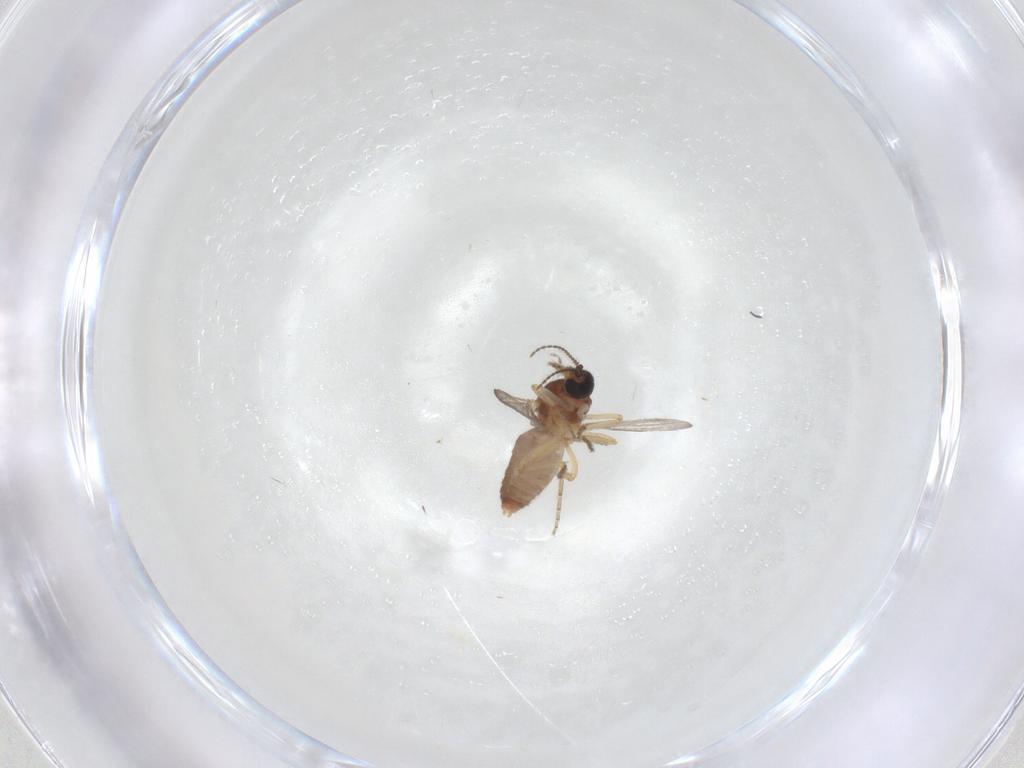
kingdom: Animalia
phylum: Arthropoda
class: Insecta
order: Diptera
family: Ceratopogonidae
